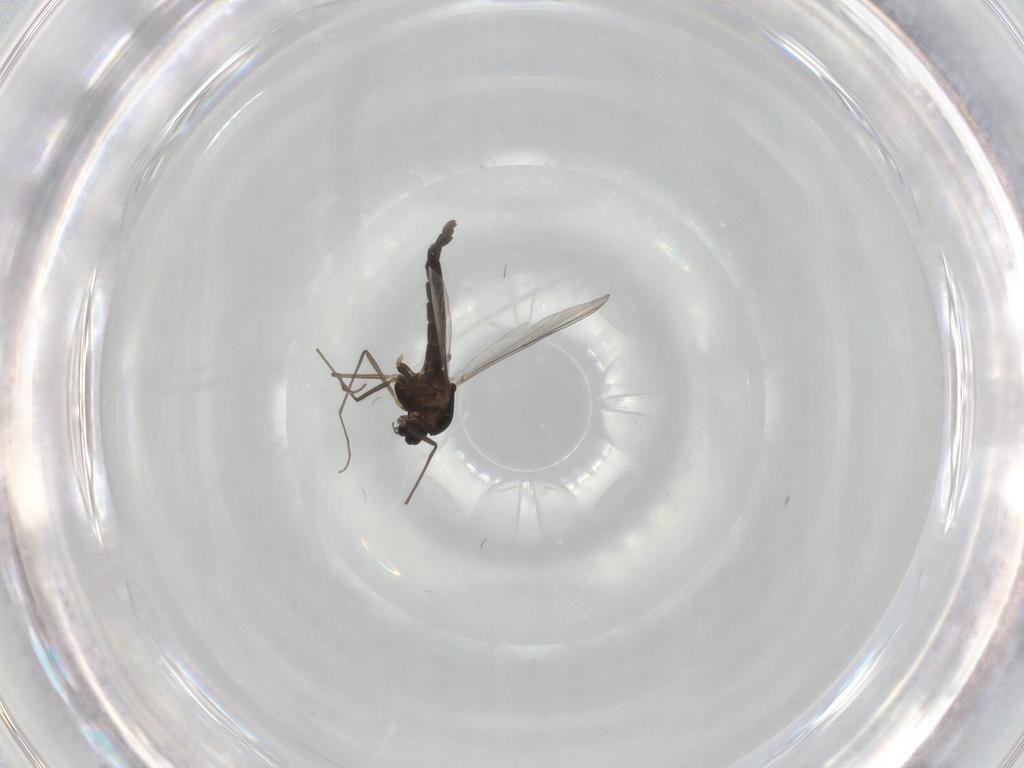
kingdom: Animalia
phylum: Arthropoda
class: Insecta
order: Diptera
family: Chironomidae
